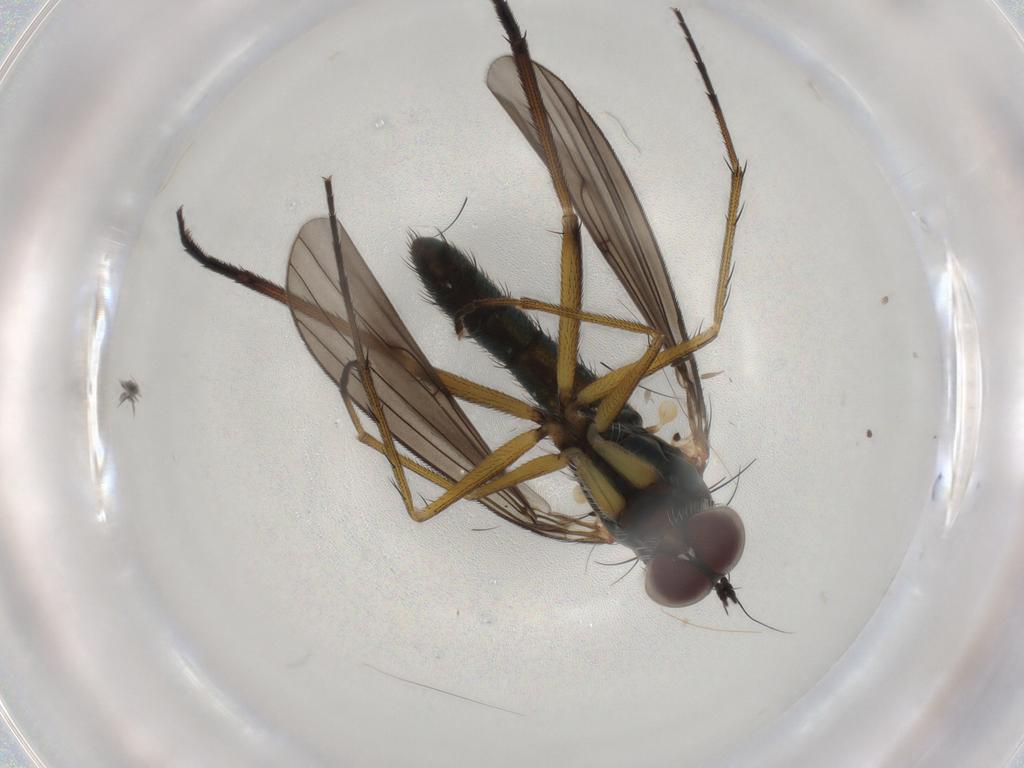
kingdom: Animalia
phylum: Arthropoda
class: Insecta
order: Diptera
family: Dolichopodidae
